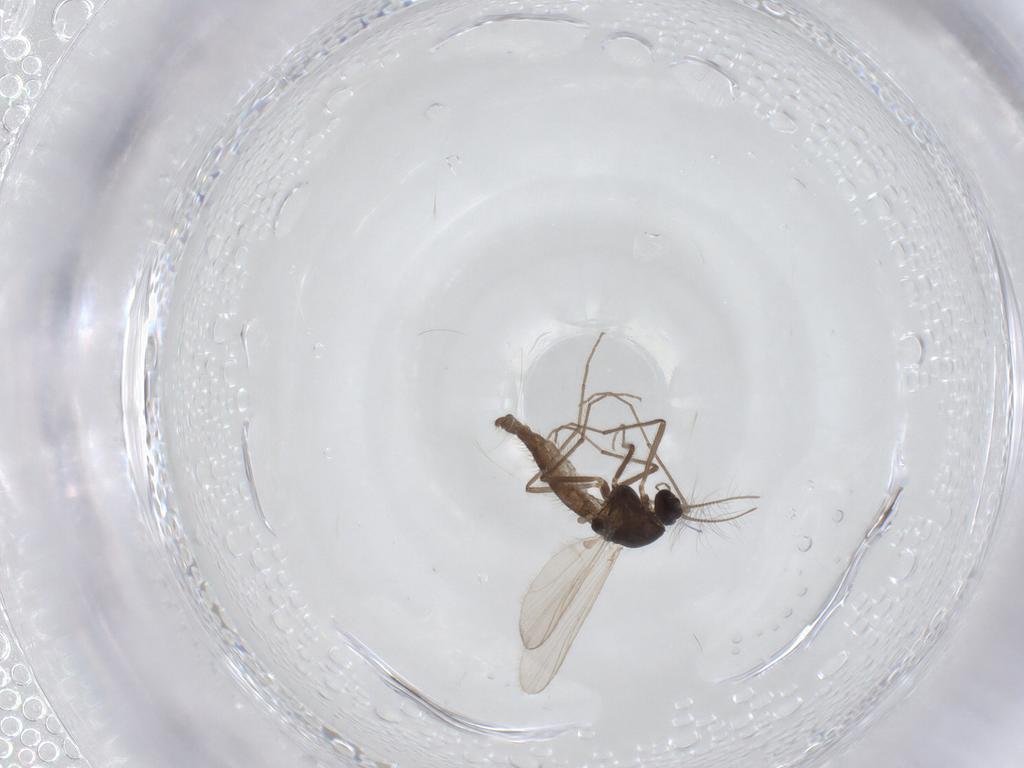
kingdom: Animalia
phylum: Arthropoda
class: Insecta
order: Diptera
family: Chironomidae
